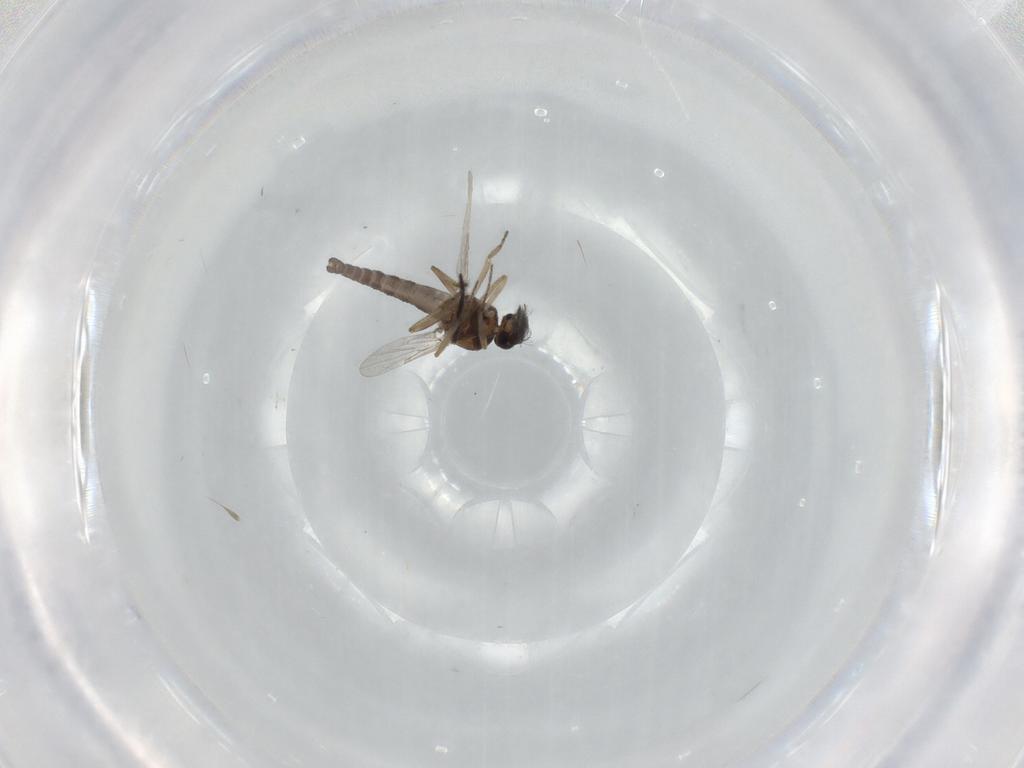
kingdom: Animalia
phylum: Arthropoda
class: Insecta
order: Diptera
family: Ceratopogonidae
